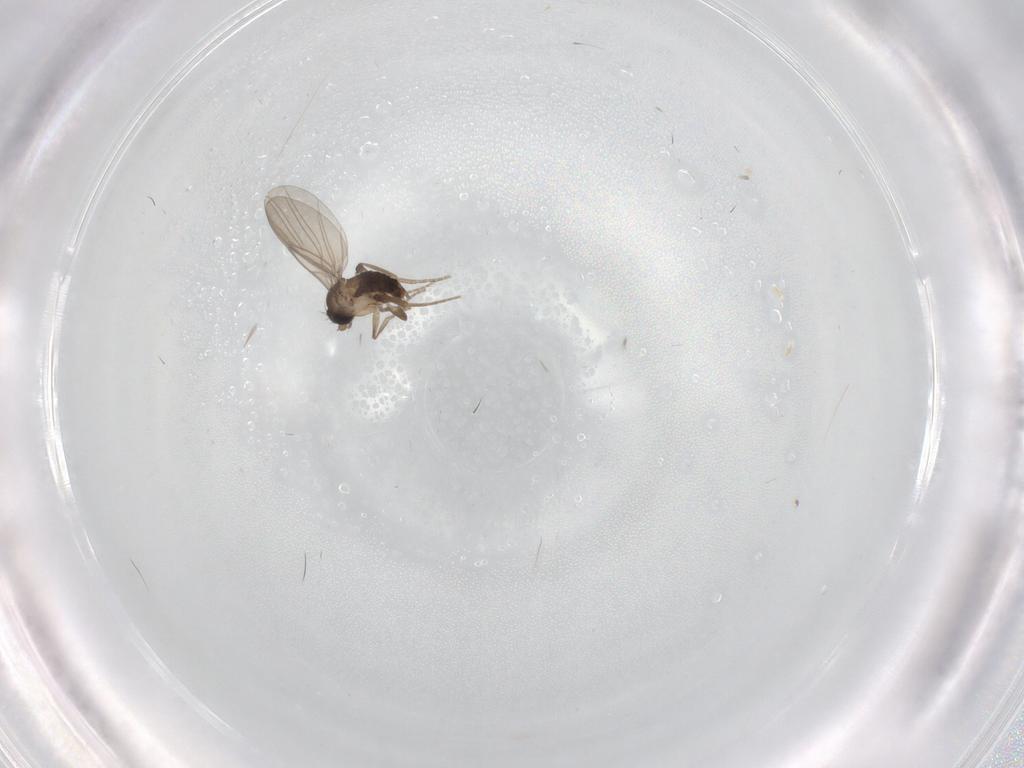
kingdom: Animalia
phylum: Arthropoda
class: Insecta
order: Diptera
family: Phoridae
